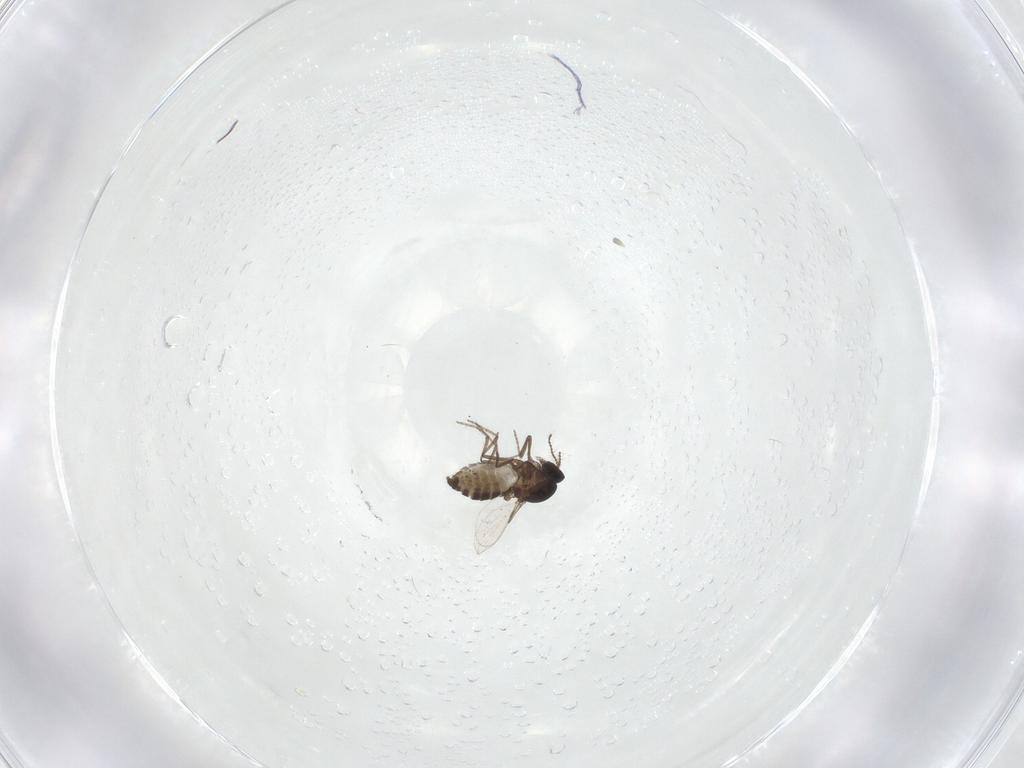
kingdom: Animalia
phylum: Arthropoda
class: Insecta
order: Diptera
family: Ceratopogonidae
